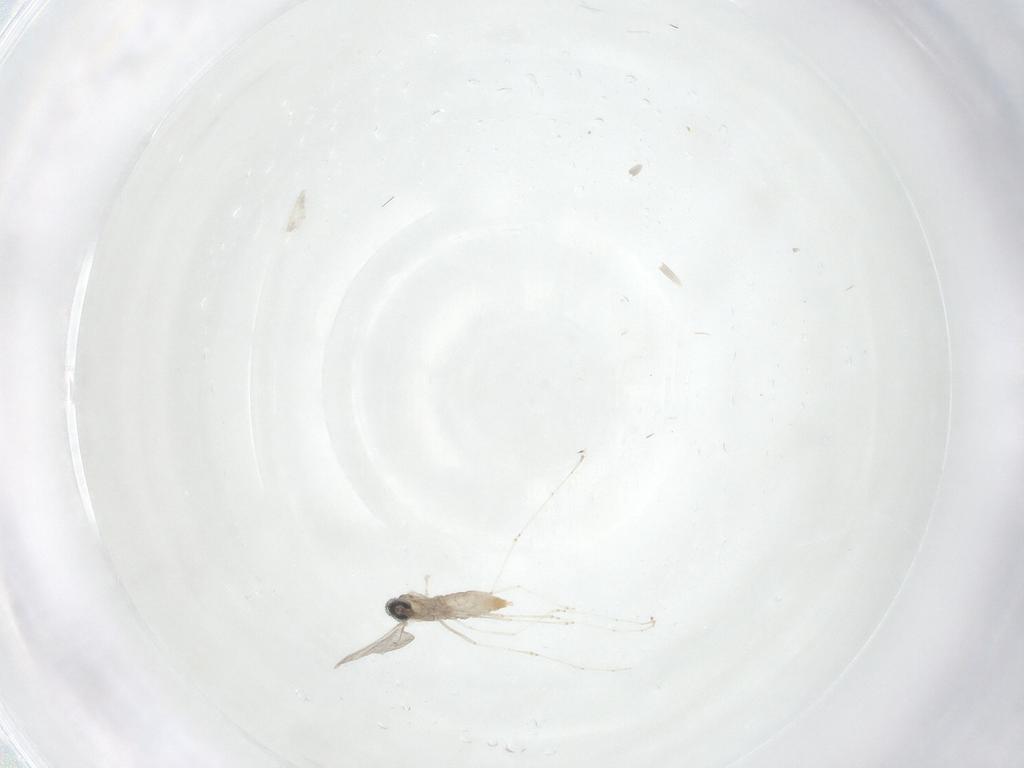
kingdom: Animalia
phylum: Arthropoda
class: Insecta
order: Diptera
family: Cecidomyiidae
